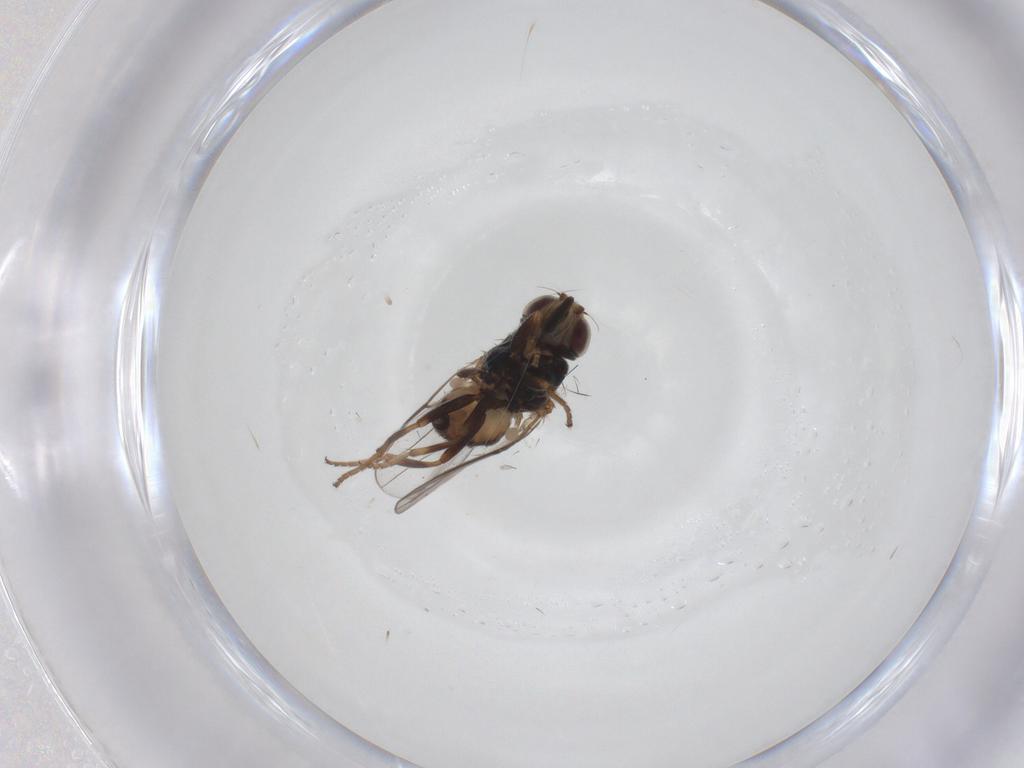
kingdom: Animalia
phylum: Arthropoda
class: Insecta
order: Diptera
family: Chloropidae
